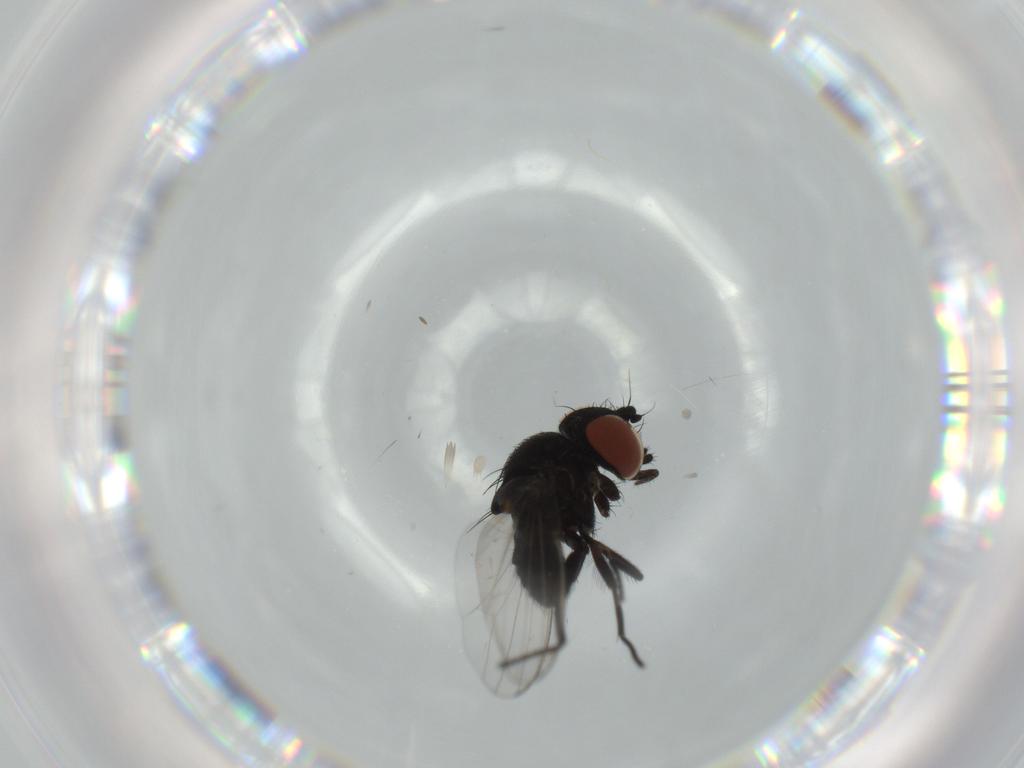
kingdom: Animalia
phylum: Arthropoda
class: Insecta
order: Diptera
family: Milichiidae
